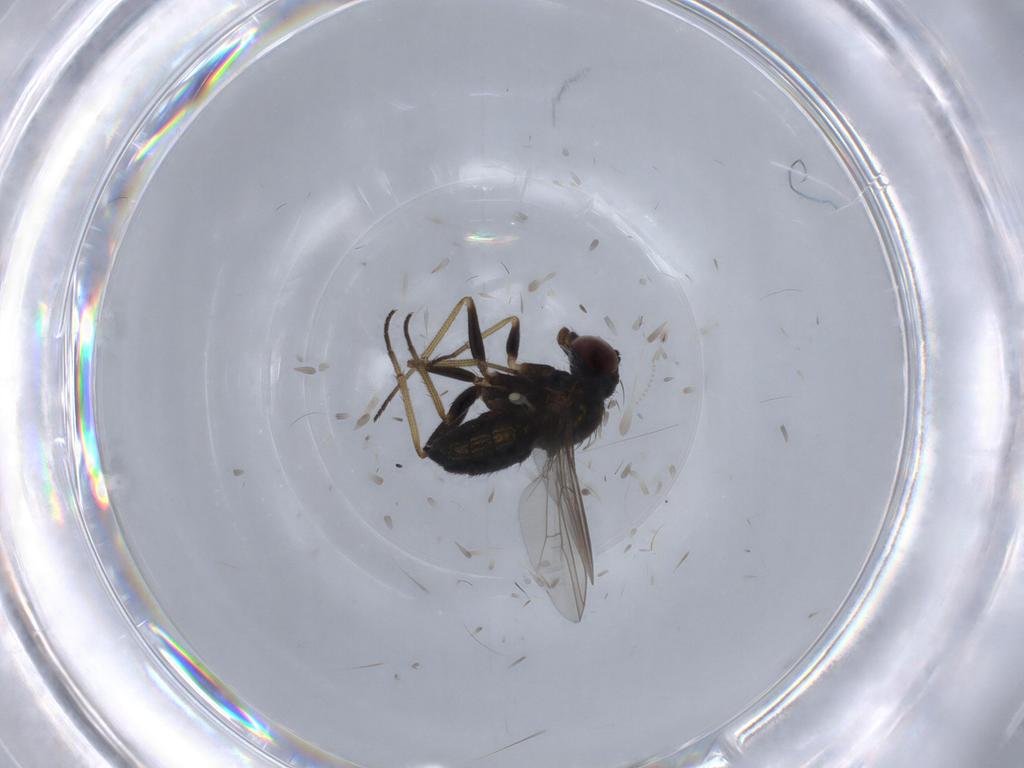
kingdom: Animalia
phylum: Arthropoda
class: Insecta
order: Diptera
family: Dolichopodidae
